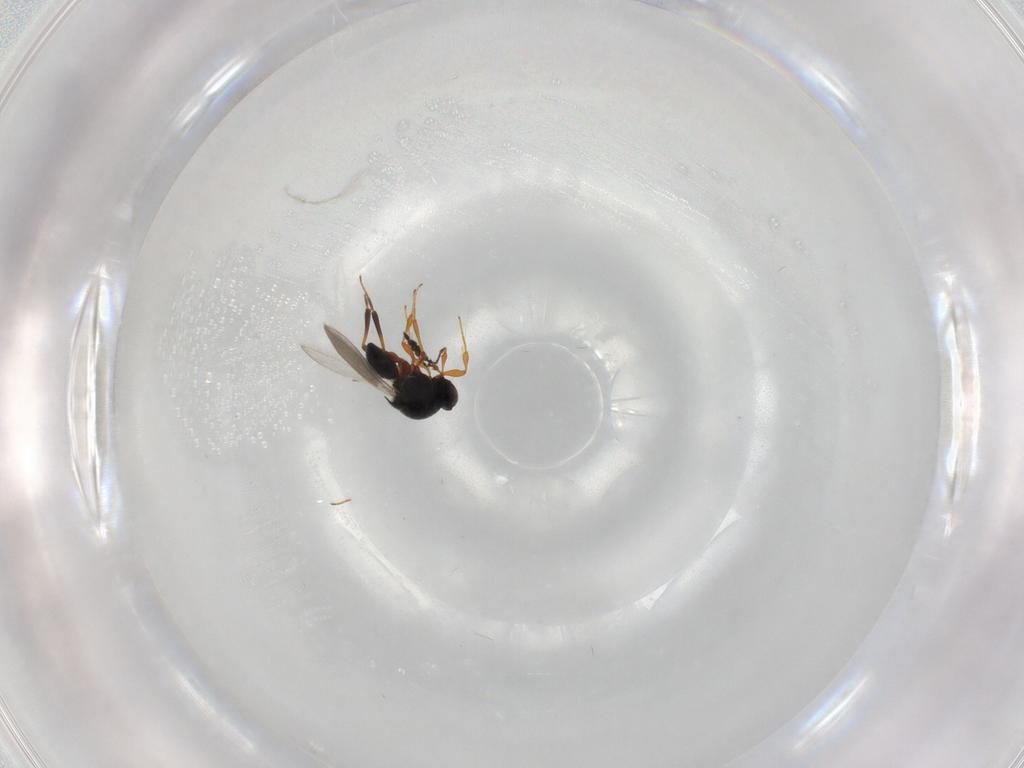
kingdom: Animalia
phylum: Arthropoda
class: Insecta
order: Hymenoptera
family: Platygastridae
